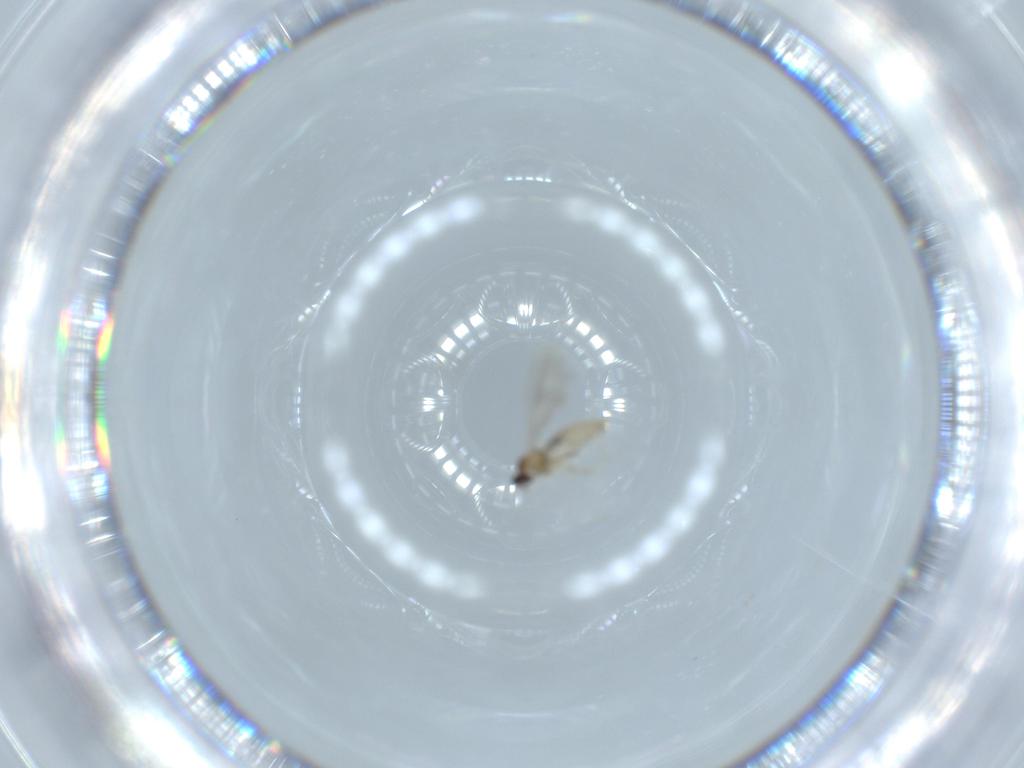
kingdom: Animalia
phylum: Arthropoda
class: Insecta
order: Diptera
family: Cecidomyiidae
